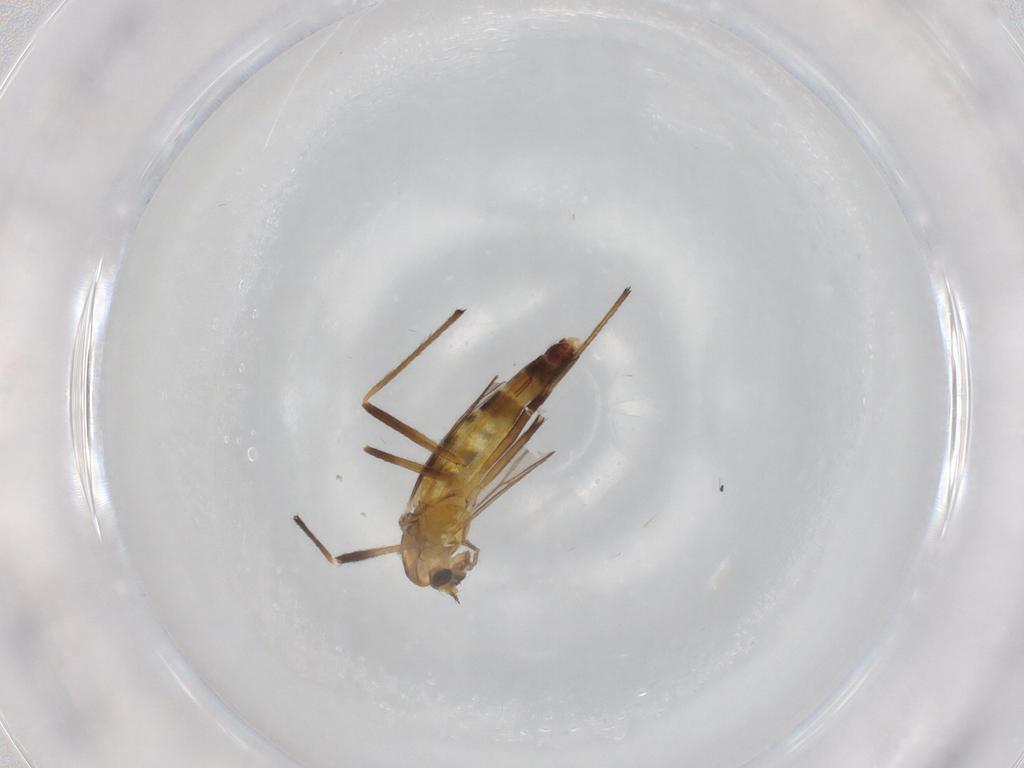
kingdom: Animalia
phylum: Arthropoda
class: Insecta
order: Diptera
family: Chironomidae
